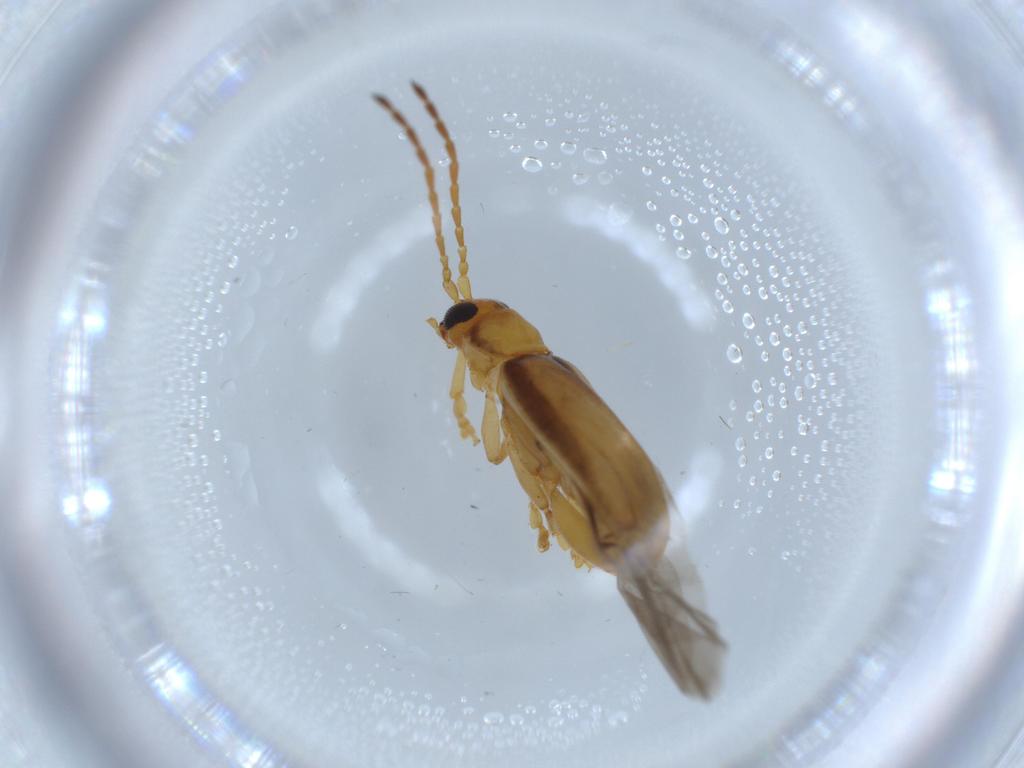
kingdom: Animalia
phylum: Arthropoda
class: Insecta
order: Coleoptera
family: Chrysomelidae
